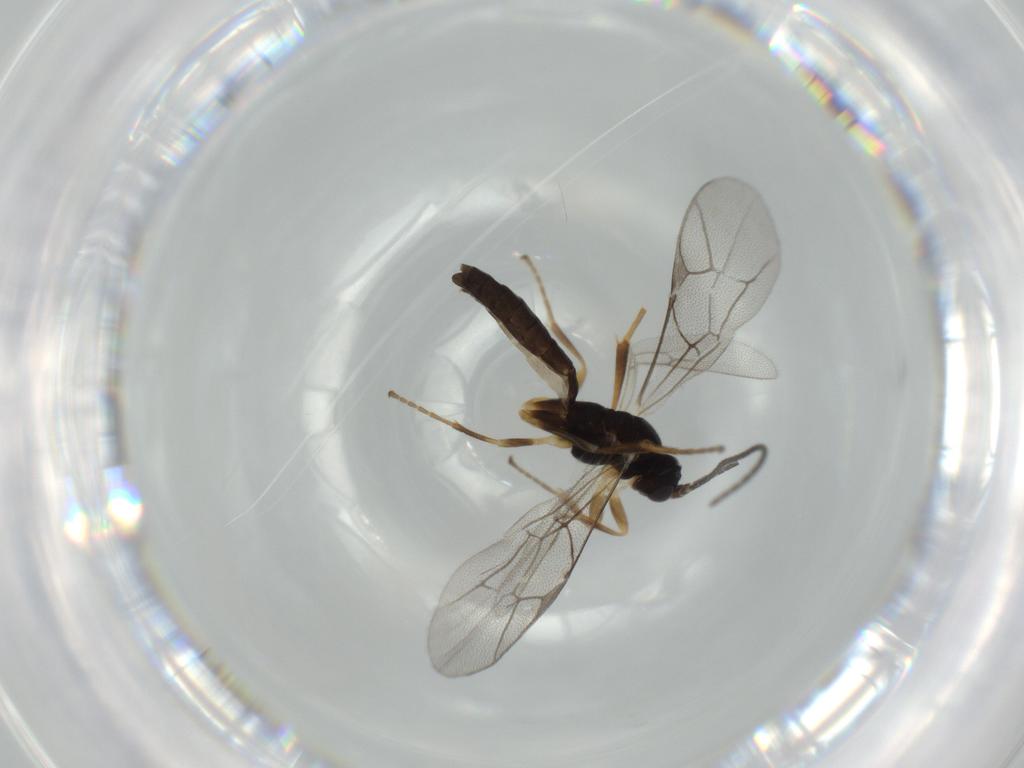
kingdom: Animalia
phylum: Arthropoda
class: Insecta
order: Hymenoptera
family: Ichneumonidae
